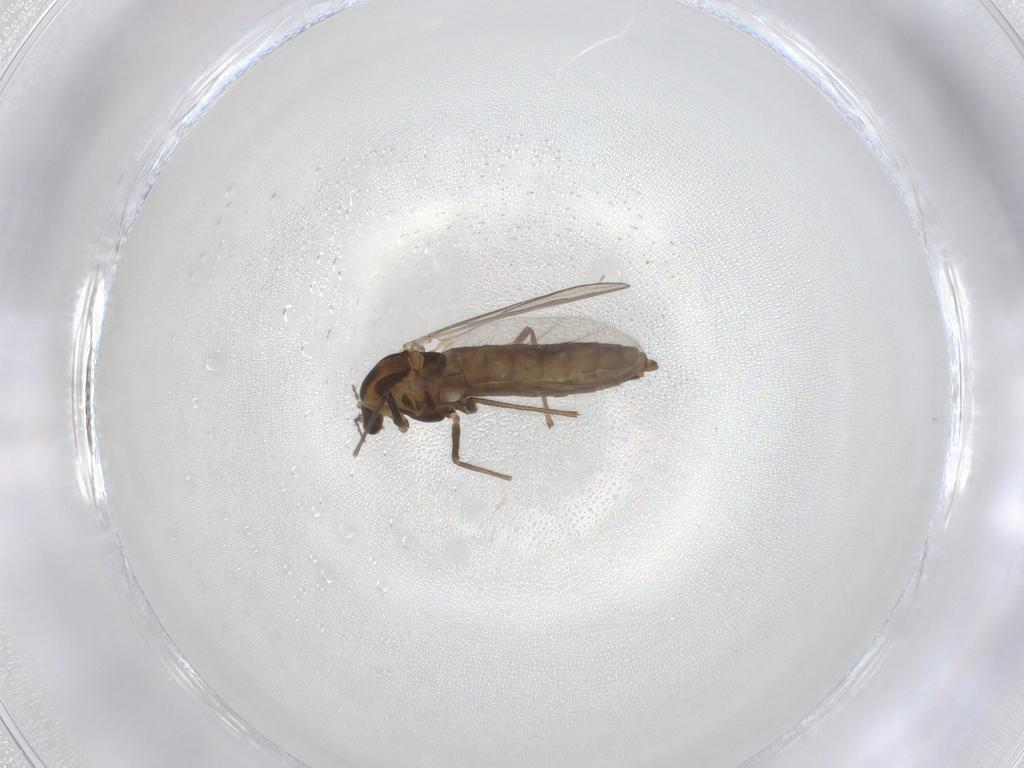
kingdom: Animalia
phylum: Arthropoda
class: Insecta
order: Diptera
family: Chironomidae
